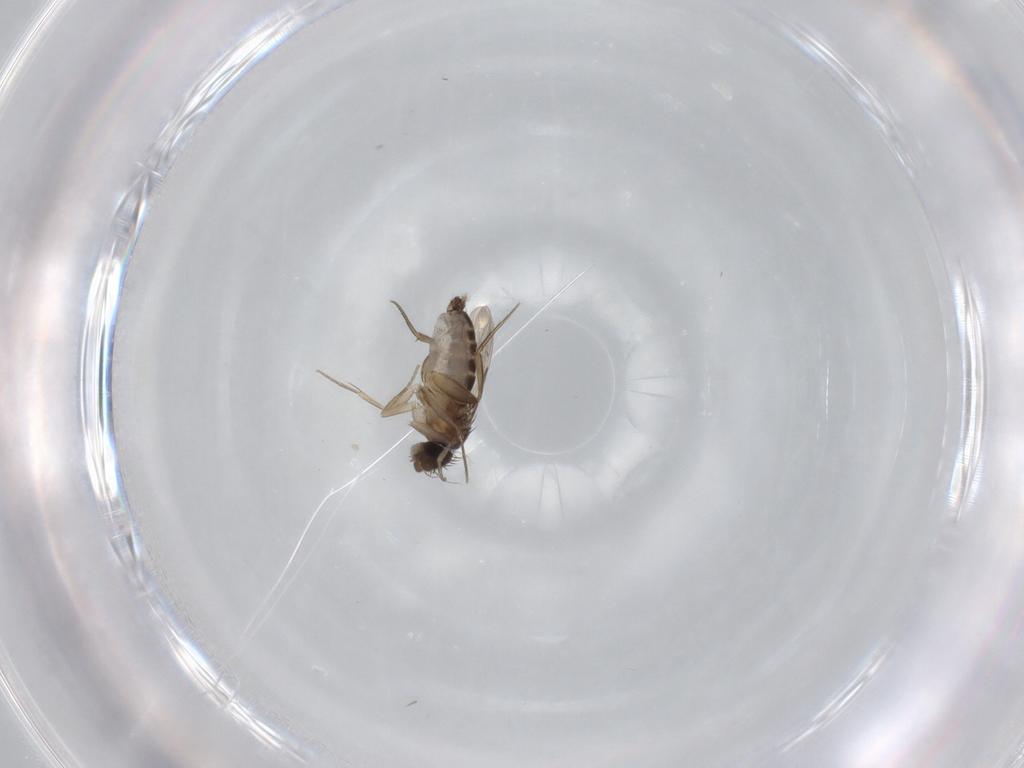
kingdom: Animalia
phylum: Arthropoda
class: Insecta
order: Diptera
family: Phoridae
